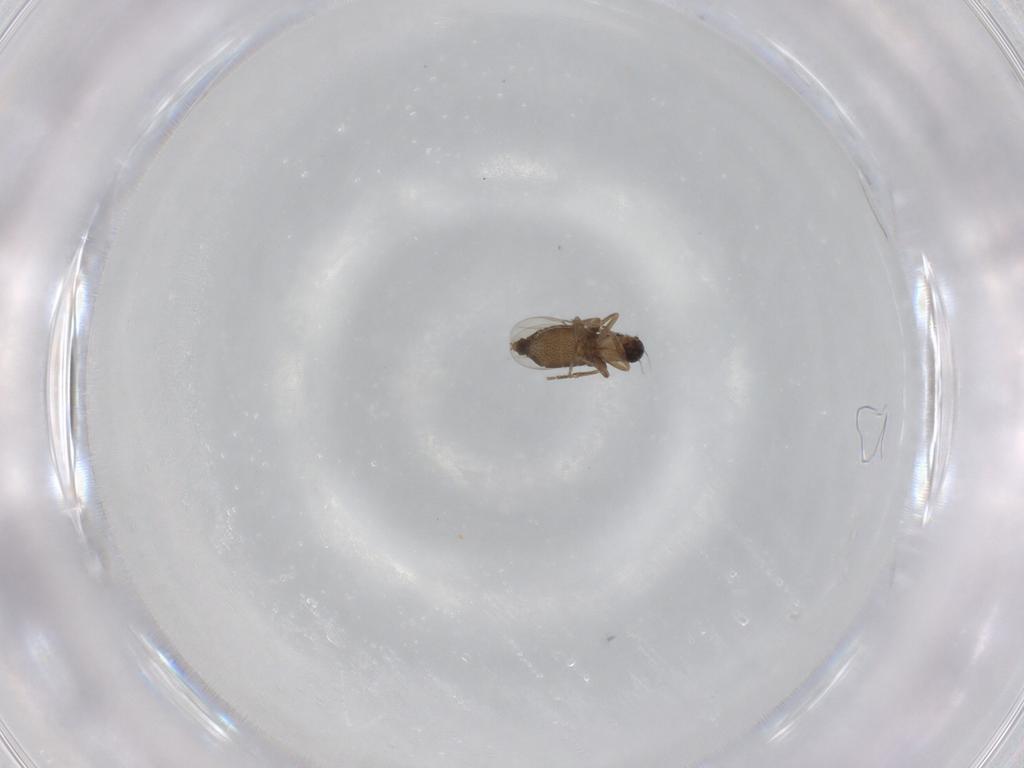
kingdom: Animalia
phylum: Arthropoda
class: Insecta
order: Diptera
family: Phoridae
